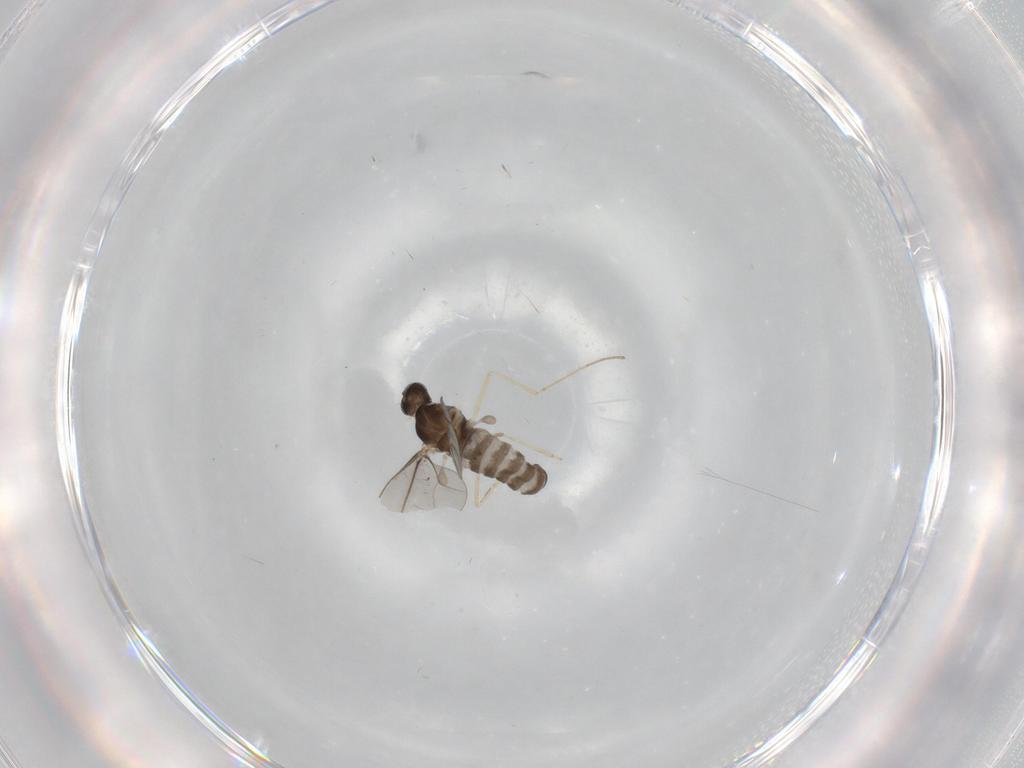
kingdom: Animalia
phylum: Arthropoda
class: Insecta
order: Diptera
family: Cecidomyiidae
